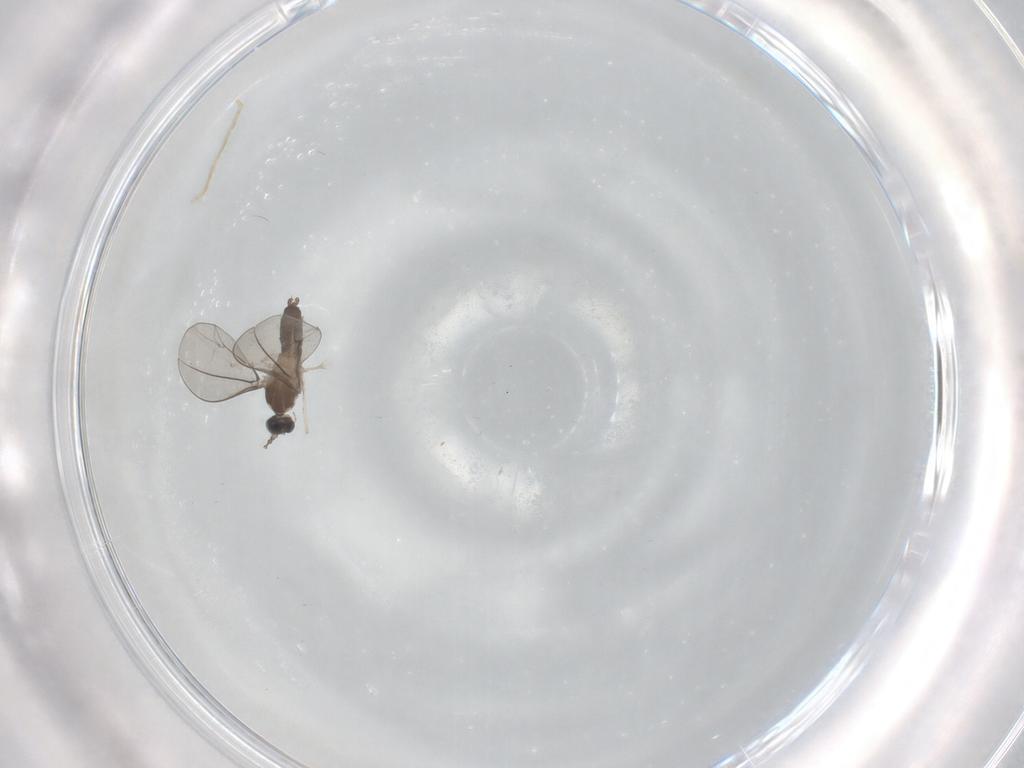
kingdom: Animalia
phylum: Arthropoda
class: Insecta
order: Diptera
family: Cecidomyiidae
